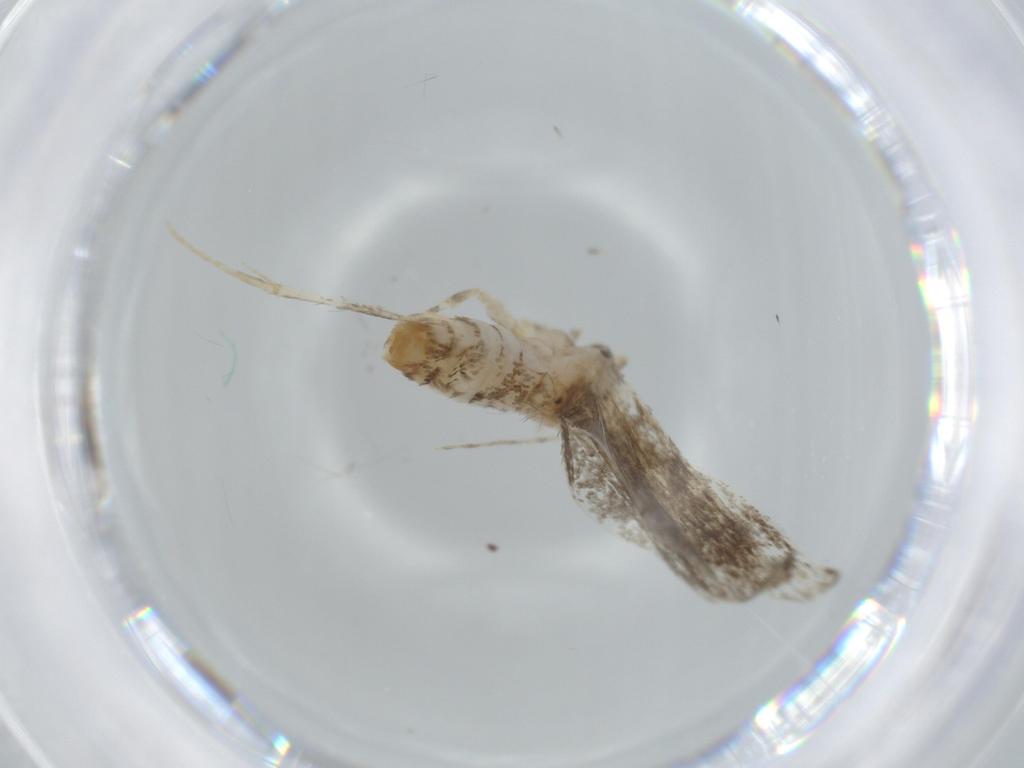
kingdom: Animalia
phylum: Arthropoda
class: Insecta
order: Lepidoptera
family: Tineidae
